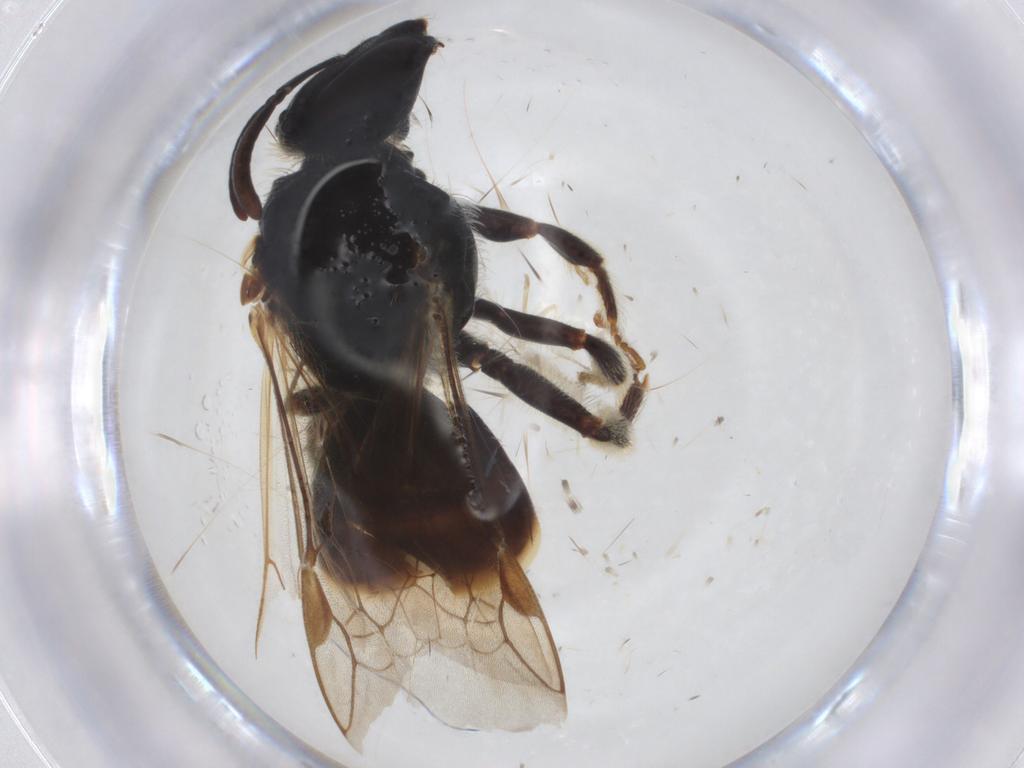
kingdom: Animalia
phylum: Arthropoda
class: Insecta
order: Hymenoptera
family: Halictidae
